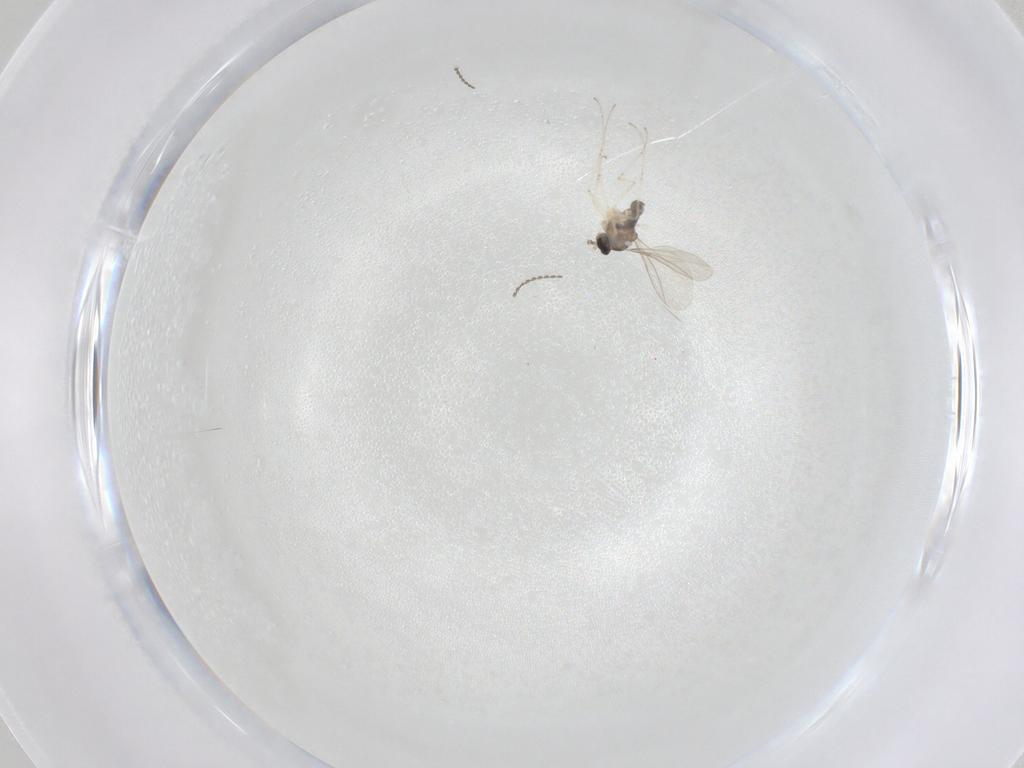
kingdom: Animalia
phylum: Arthropoda
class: Insecta
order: Diptera
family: Cecidomyiidae
